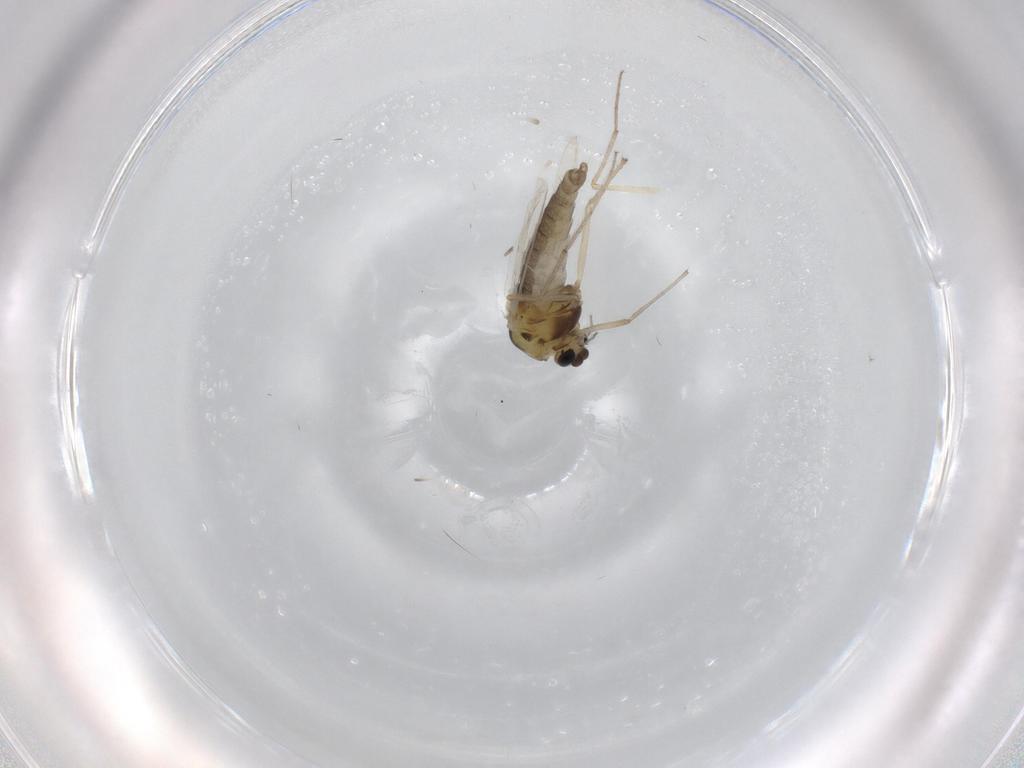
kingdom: Animalia
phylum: Arthropoda
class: Insecta
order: Diptera
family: Chironomidae
